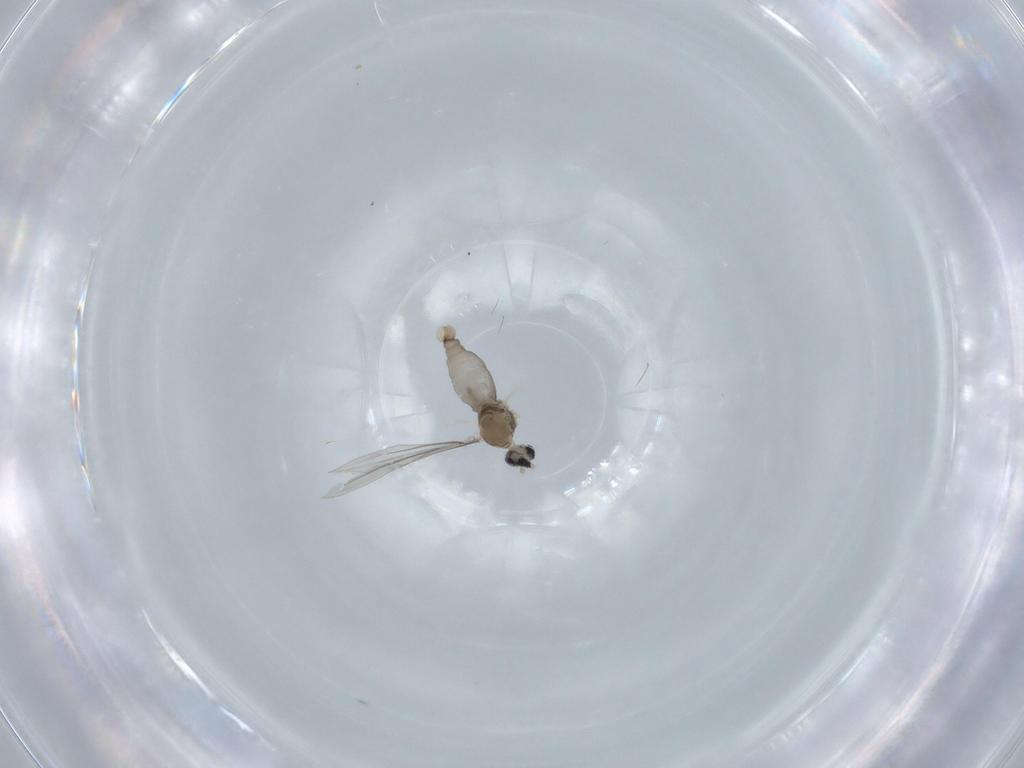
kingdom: Animalia
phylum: Arthropoda
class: Insecta
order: Diptera
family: Cecidomyiidae
